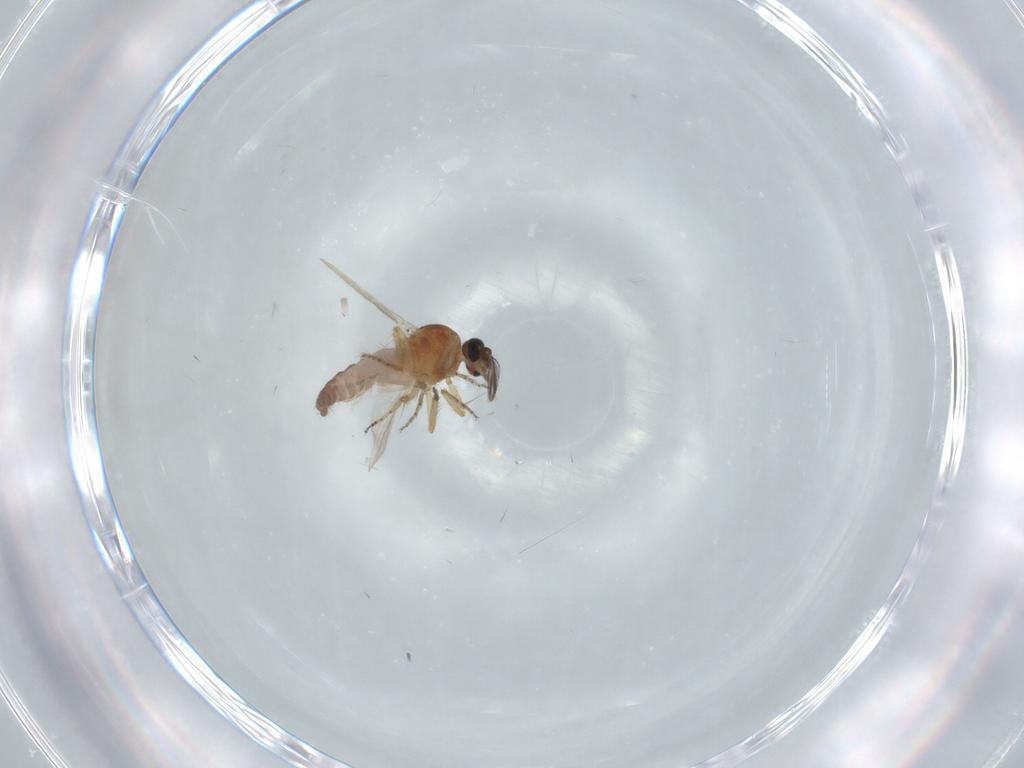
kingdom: Animalia
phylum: Arthropoda
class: Insecta
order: Diptera
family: Ceratopogonidae
